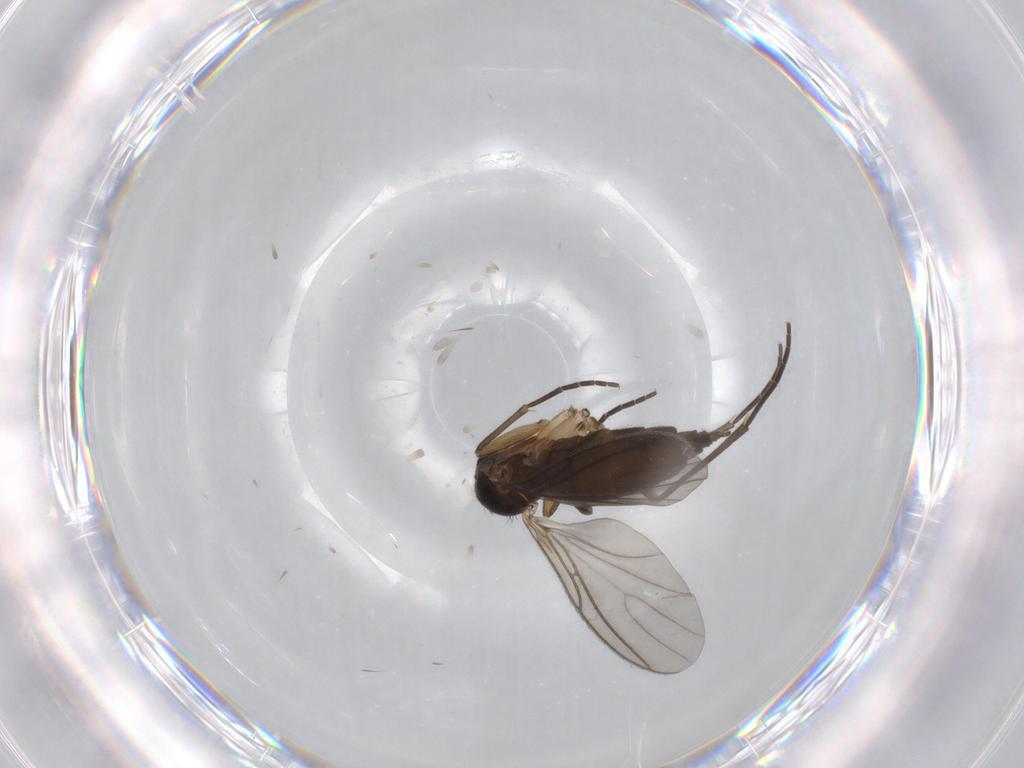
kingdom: Animalia
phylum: Arthropoda
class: Insecta
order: Diptera
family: Sciaridae
